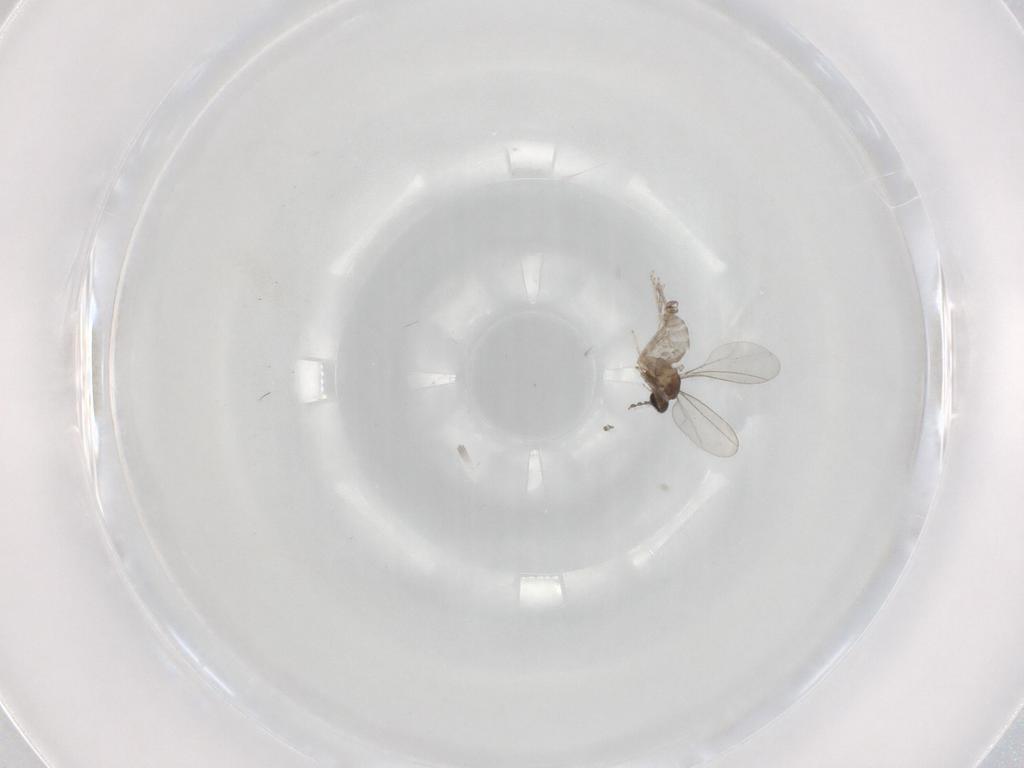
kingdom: Animalia
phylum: Arthropoda
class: Insecta
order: Diptera
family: Psychodidae
